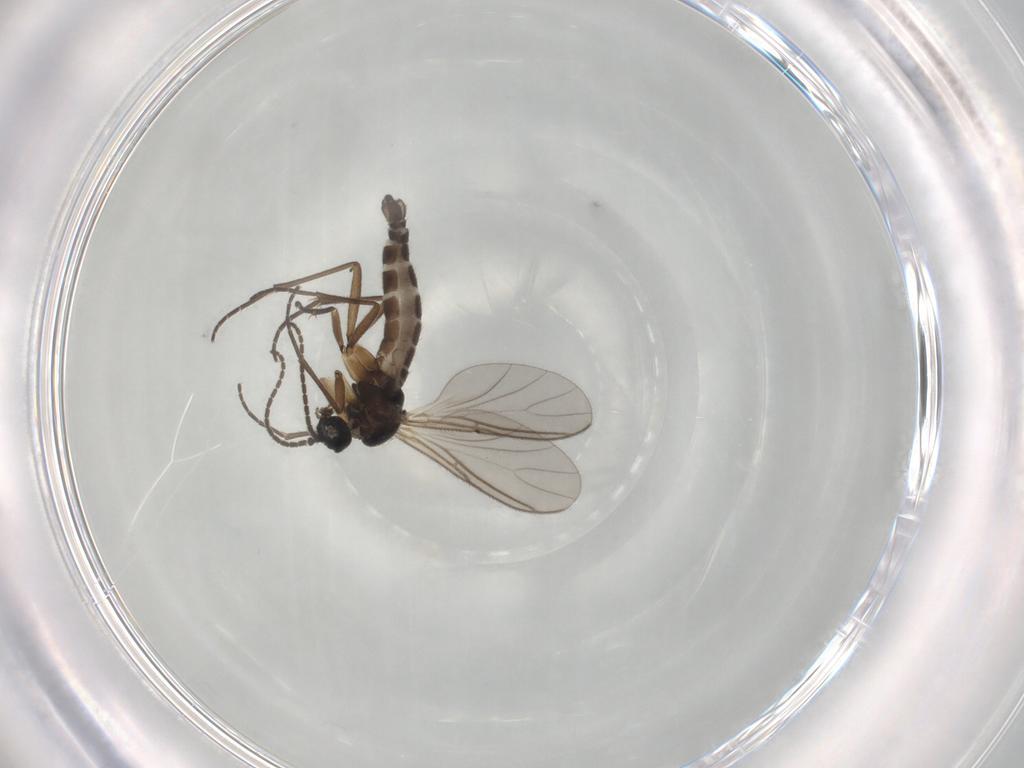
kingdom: Animalia
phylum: Arthropoda
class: Insecta
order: Diptera
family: Sciaridae
